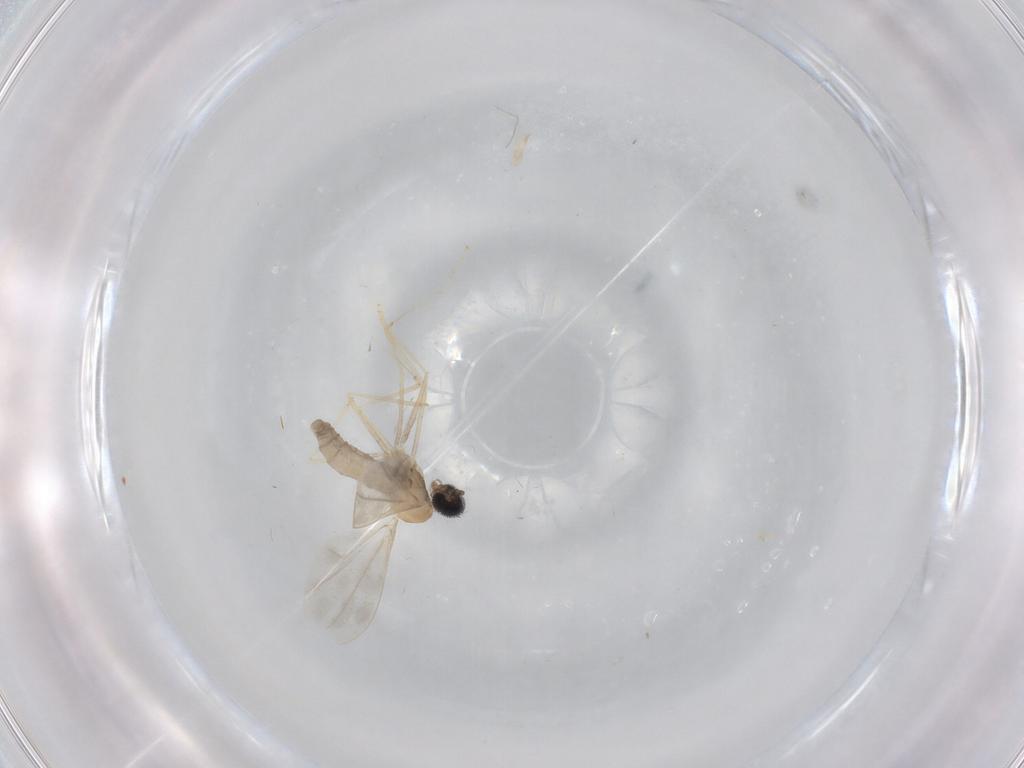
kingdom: Animalia
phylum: Arthropoda
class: Insecta
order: Diptera
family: Cecidomyiidae
